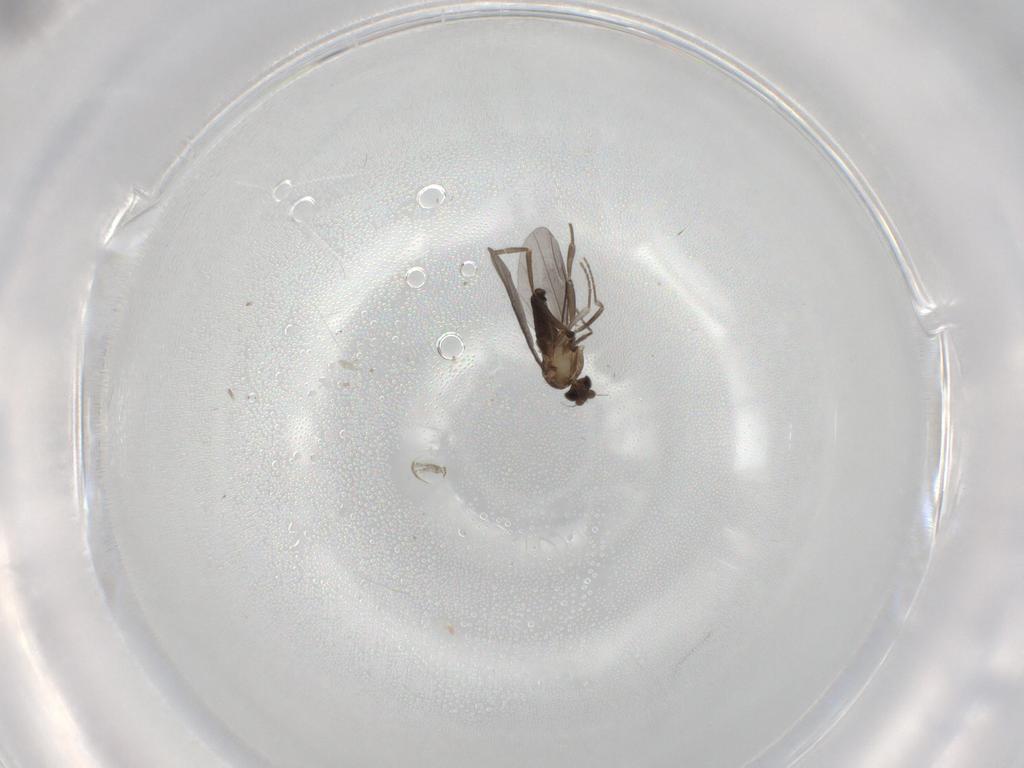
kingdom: Animalia
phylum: Arthropoda
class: Insecta
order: Diptera
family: Phoridae
